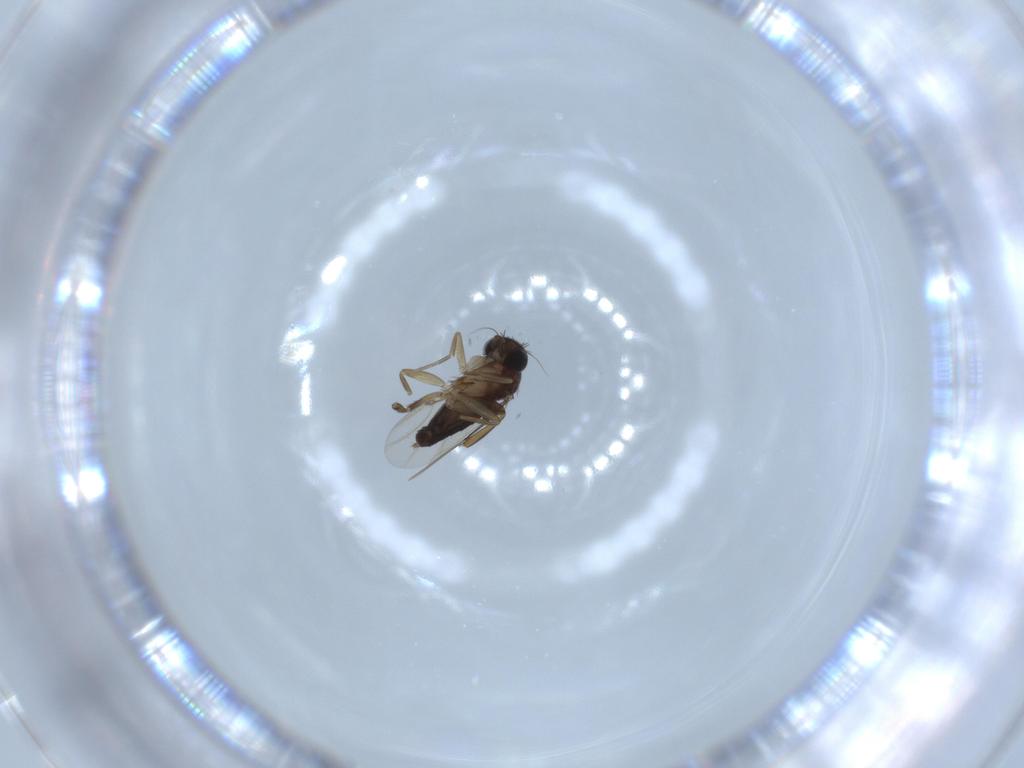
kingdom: Animalia
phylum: Arthropoda
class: Insecta
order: Diptera
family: Phoridae
